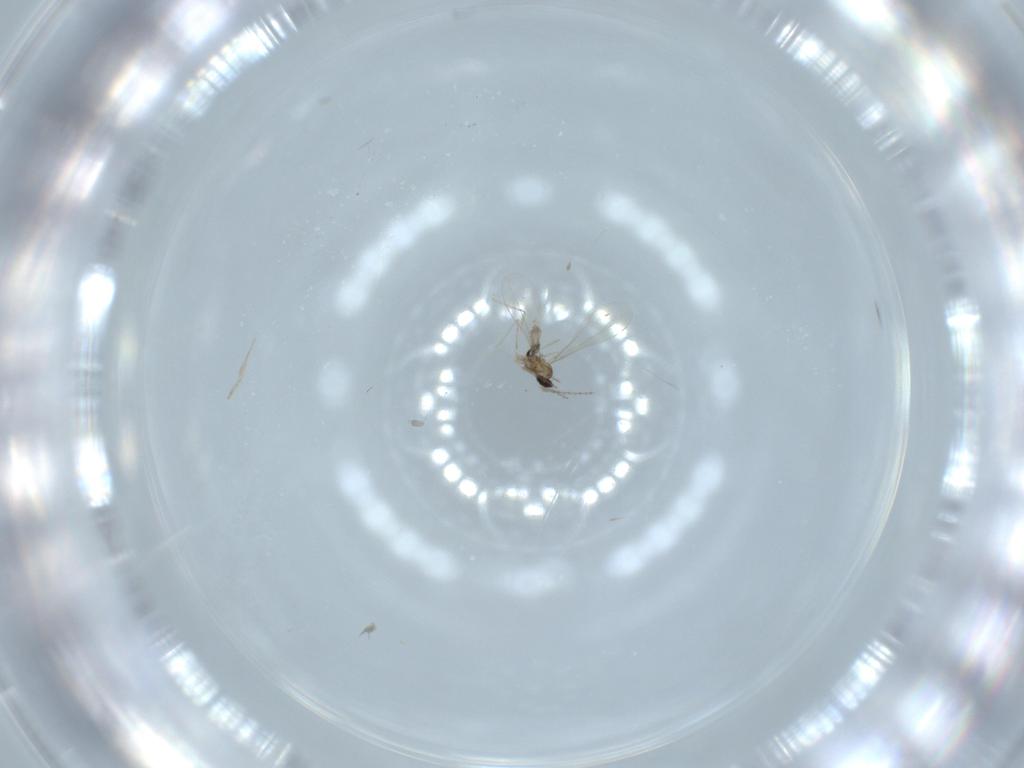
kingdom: Animalia
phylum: Arthropoda
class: Insecta
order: Diptera
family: Cecidomyiidae
